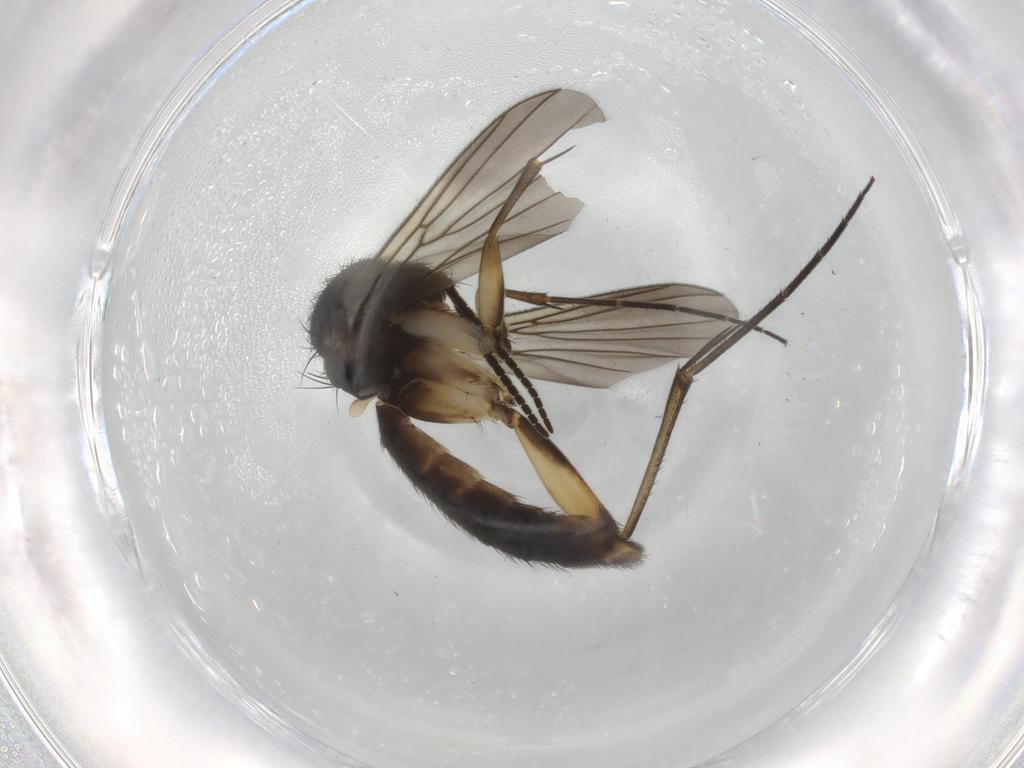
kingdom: Animalia
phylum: Arthropoda
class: Insecta
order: Diptera
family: Mycetophilidae
